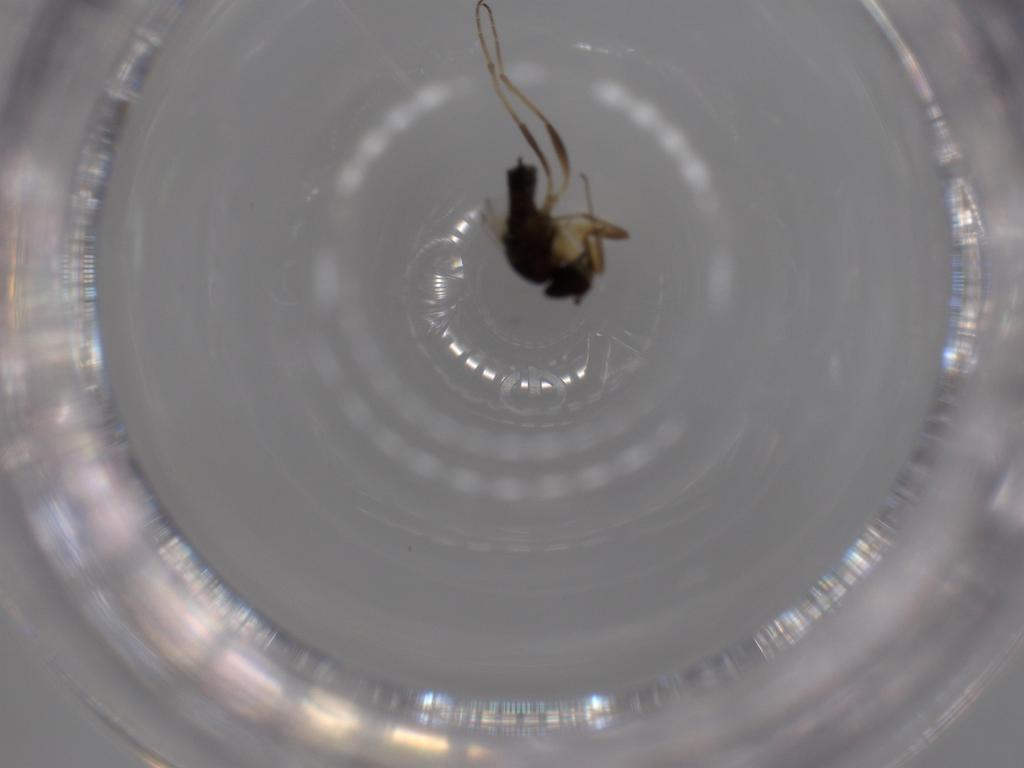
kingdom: Animalia
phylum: Arthropoda
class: Insecta
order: Diptera
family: Hybotidae
